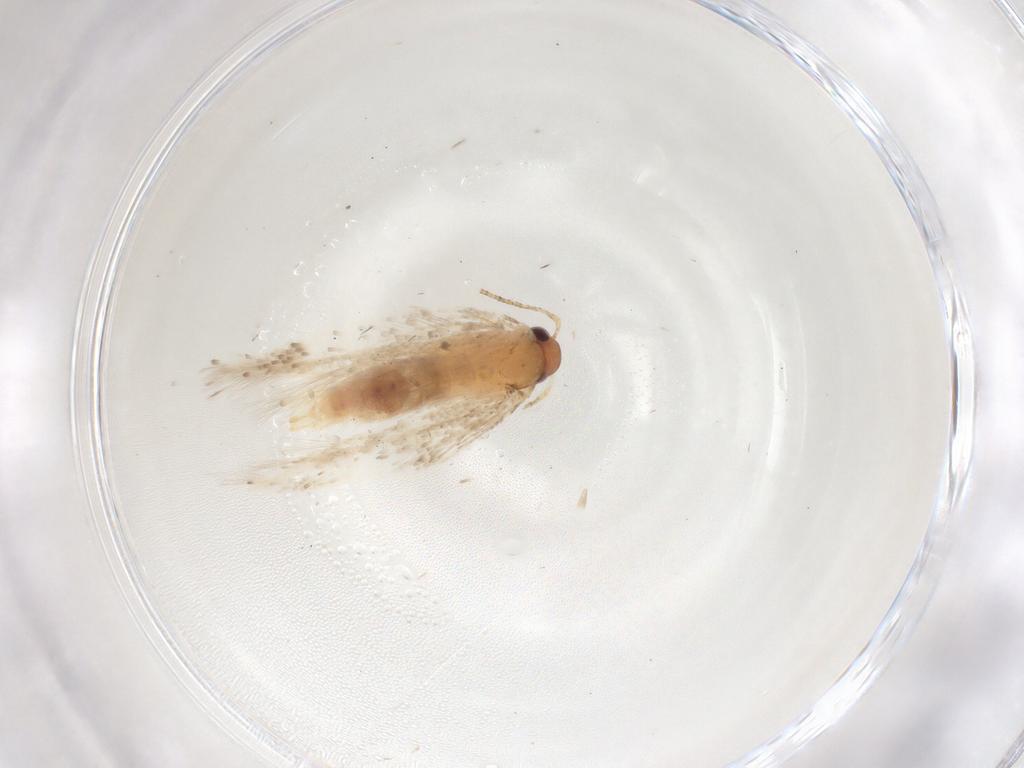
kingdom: Animalia
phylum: Arthropoda
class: Insecta
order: Lepidoptera
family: Gelechiidae
